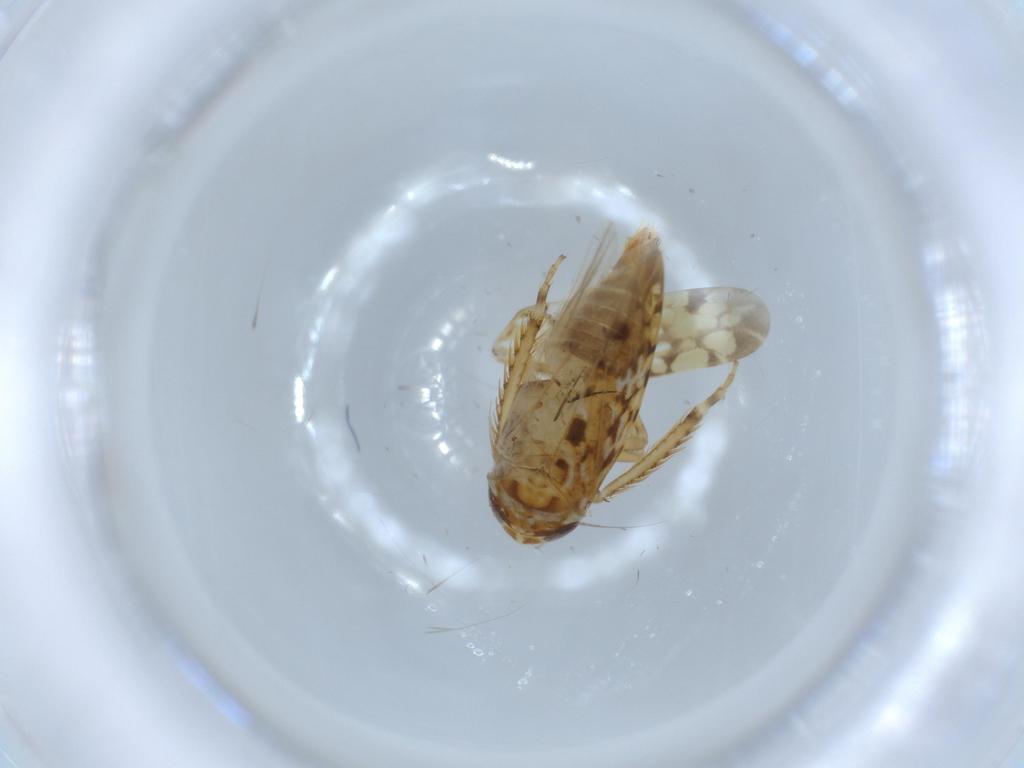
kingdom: Animalia
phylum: Arthropoda
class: Insecta
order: Hemiptera
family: Cicadellidae
